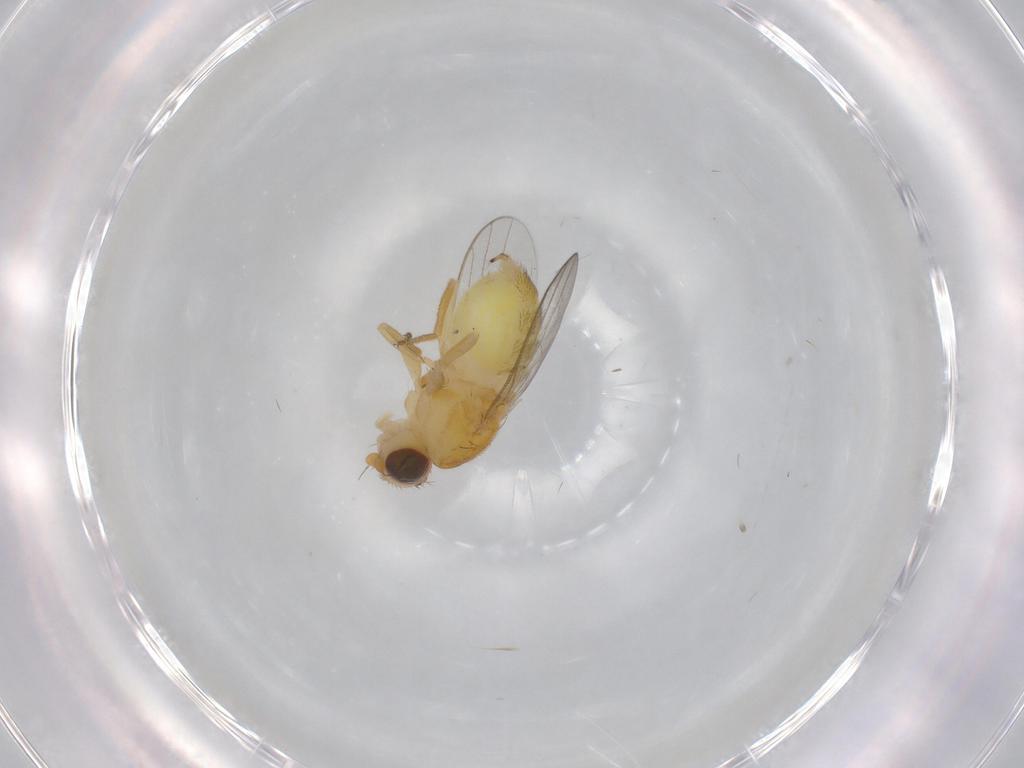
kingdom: Animalia
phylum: Arthropoda
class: Insecta
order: Diptera
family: Chloropidae
